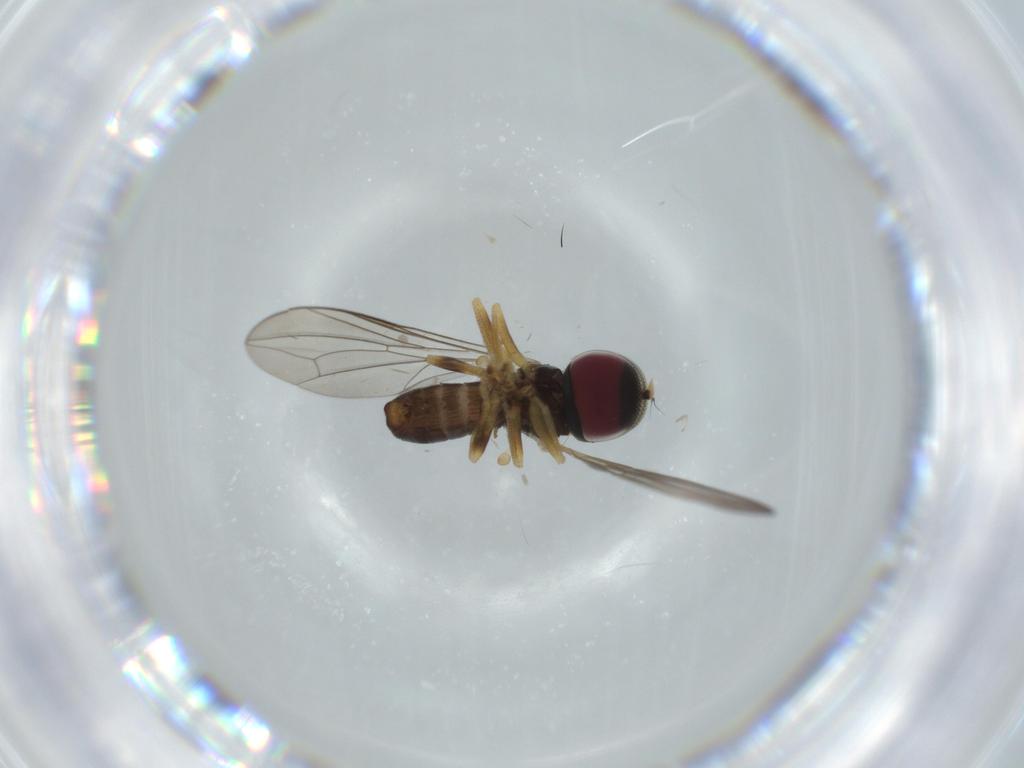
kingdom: Animalia
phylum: Arthropoda
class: Insecta
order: Diptera
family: Pipunculidae
